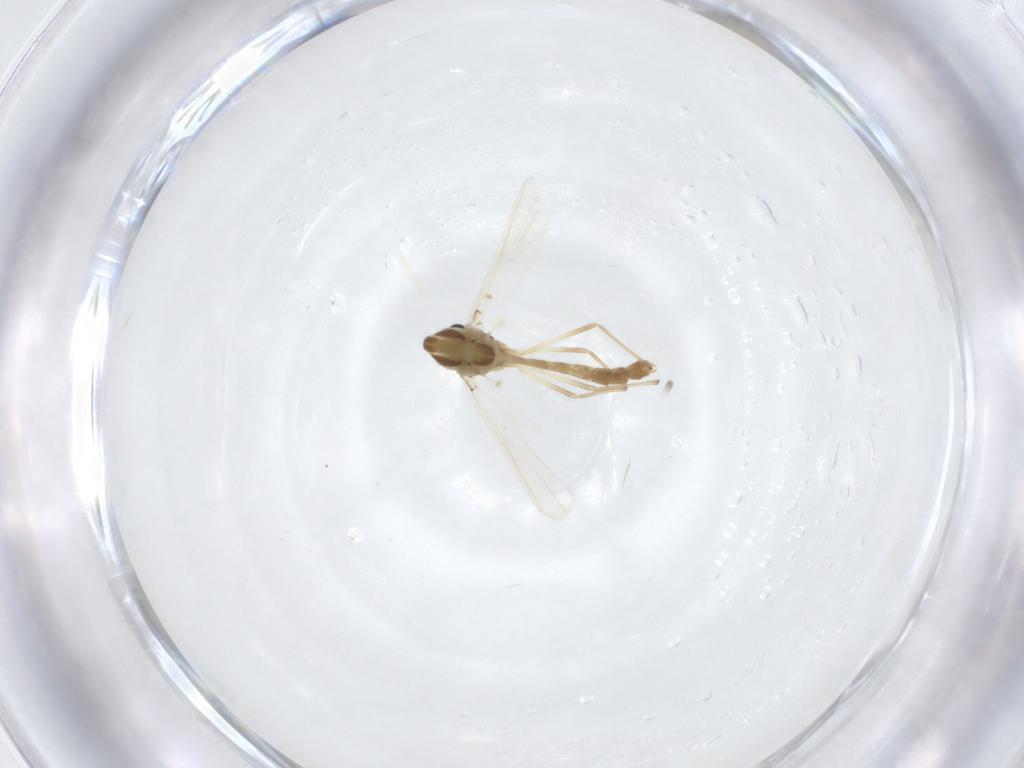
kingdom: Animalia
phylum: Arthropoda
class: Insecta
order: Diptera
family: Chironomidae
